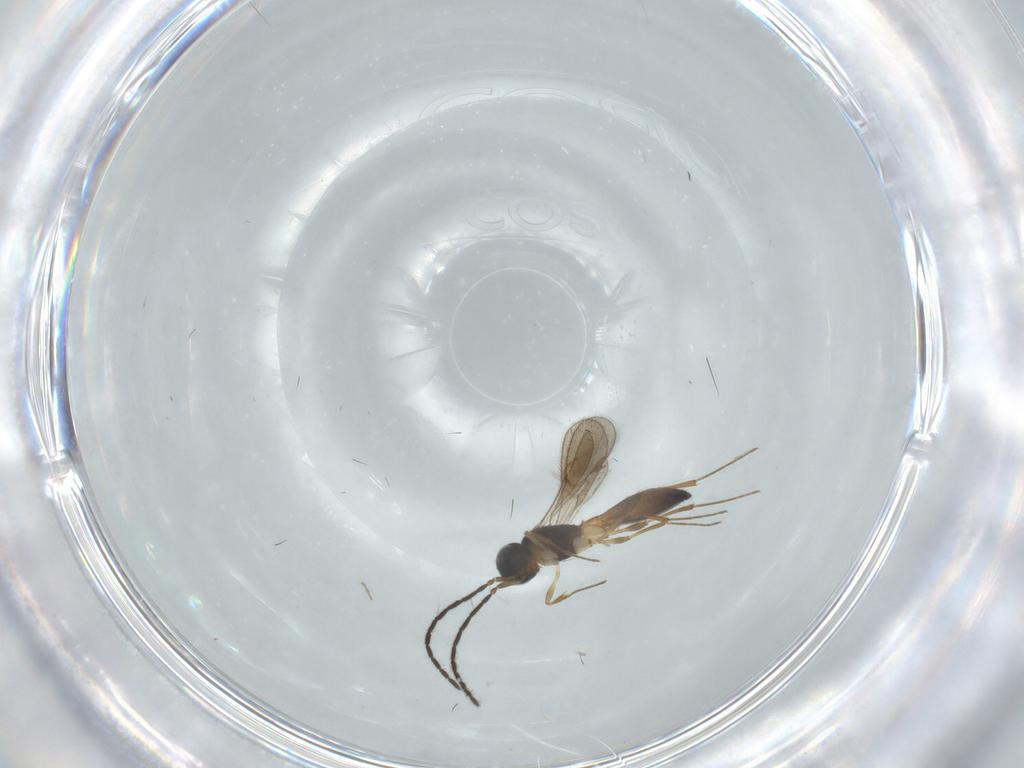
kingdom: Animalia
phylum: Arthropoda
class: Insecta
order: Hymenoptera
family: Scelionidae
